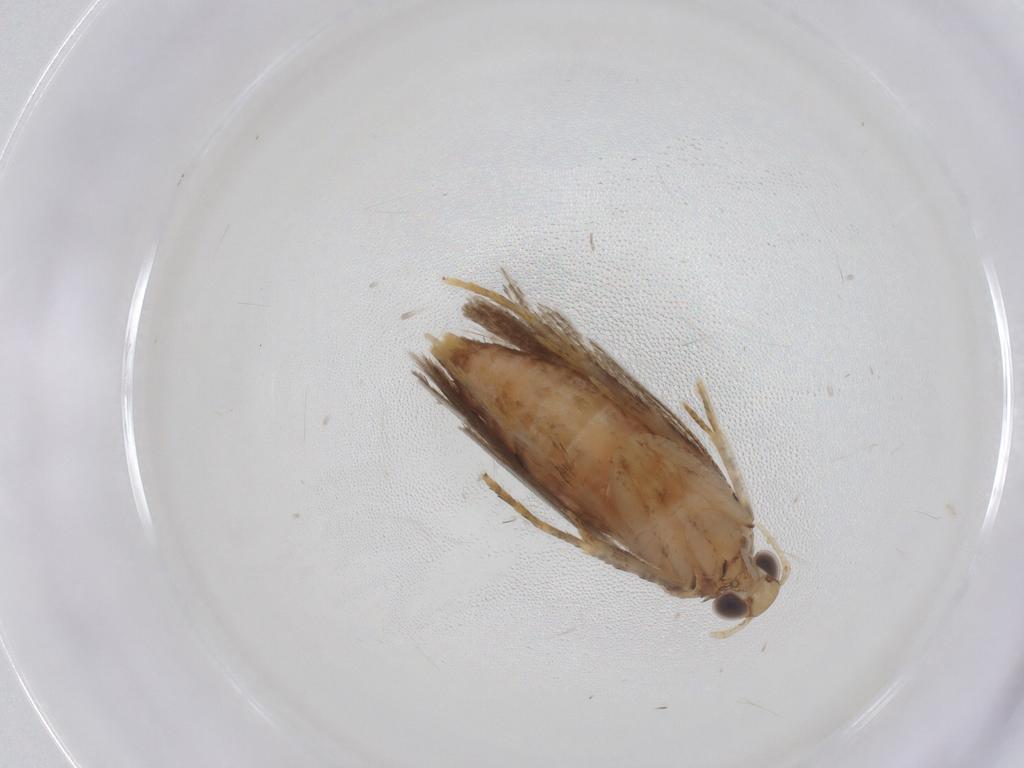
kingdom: Animalia
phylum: Arthropoda
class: Insecta
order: Lepidoptera
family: Gelechiidae
